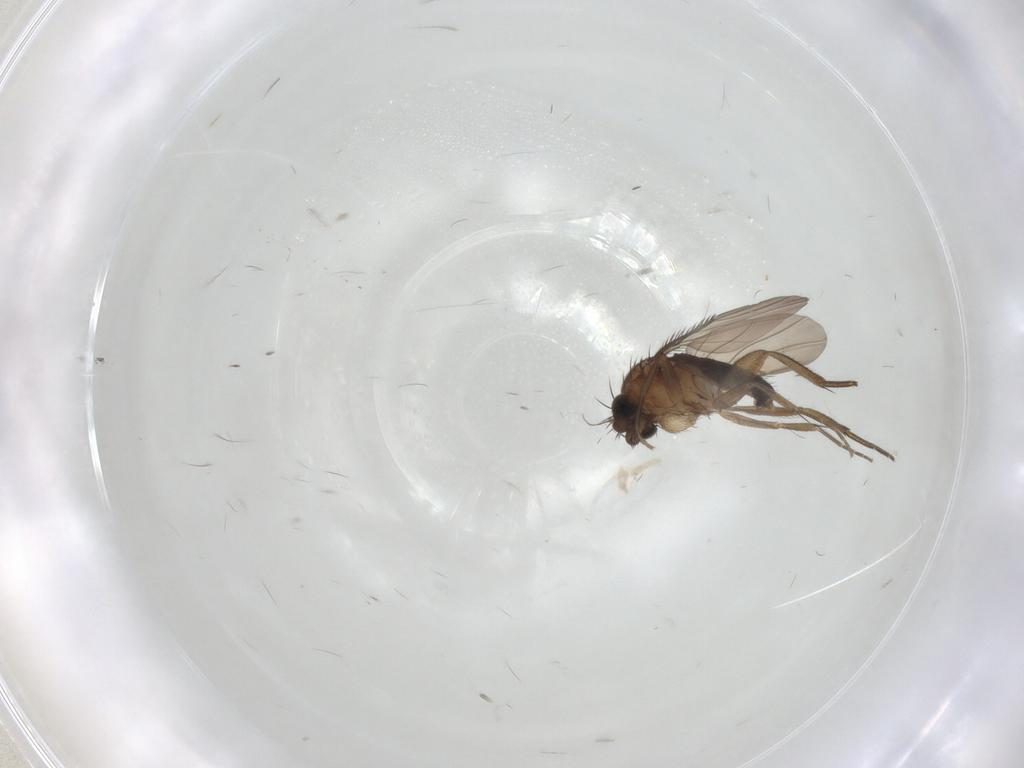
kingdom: Animalia
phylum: Arthropoda
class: Insecta
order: Diptera
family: Phoridae
